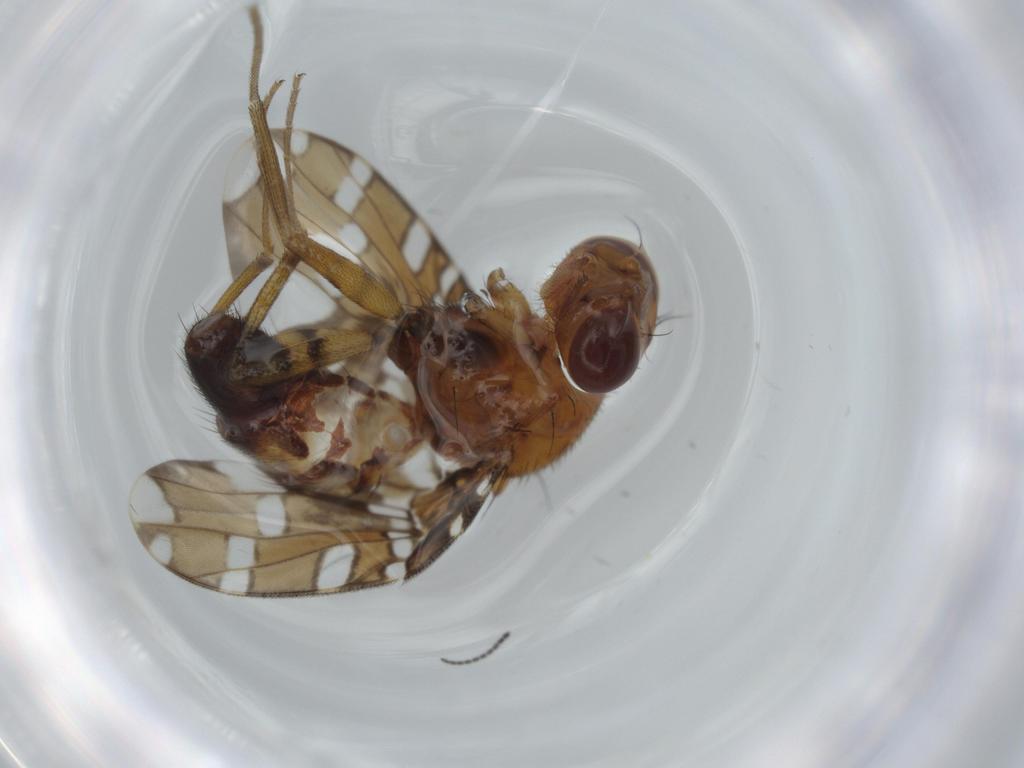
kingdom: Animalia
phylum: Arthropoda
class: Insecta
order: Diptera
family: Ulidiidae
